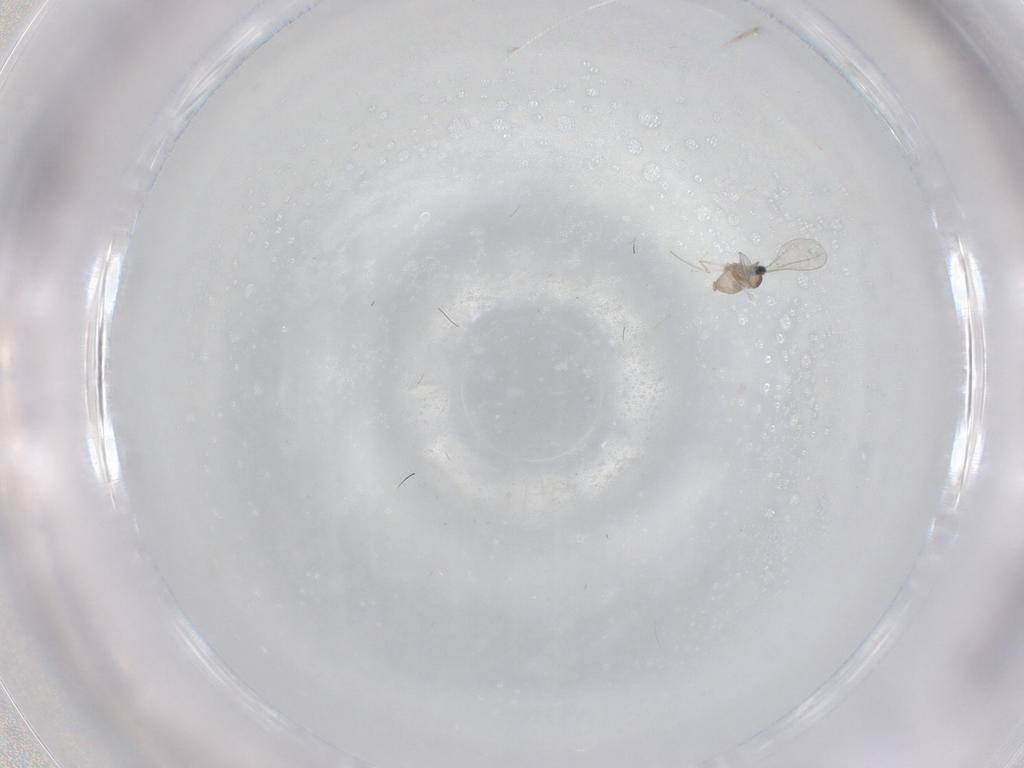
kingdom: Animalia
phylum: Arthropoda
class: Insecta
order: Diptera
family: Cecidomyiidae
